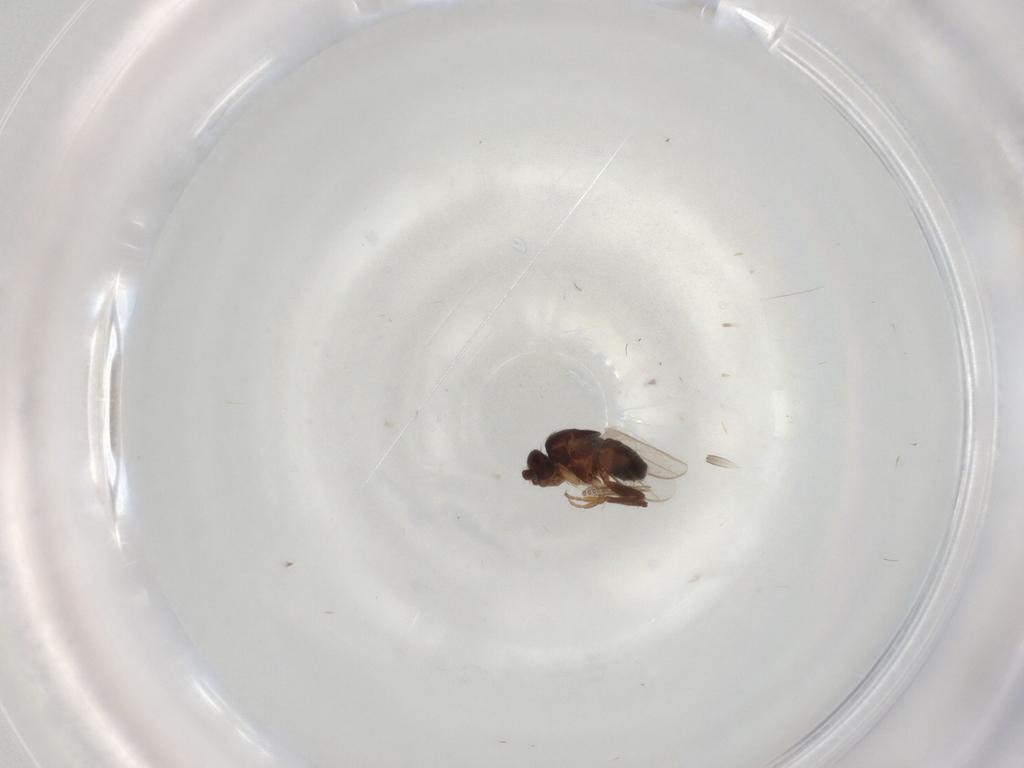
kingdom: Animalia
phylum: Arthropoda
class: Insecta
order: Diptera
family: Sphaeroceridae
